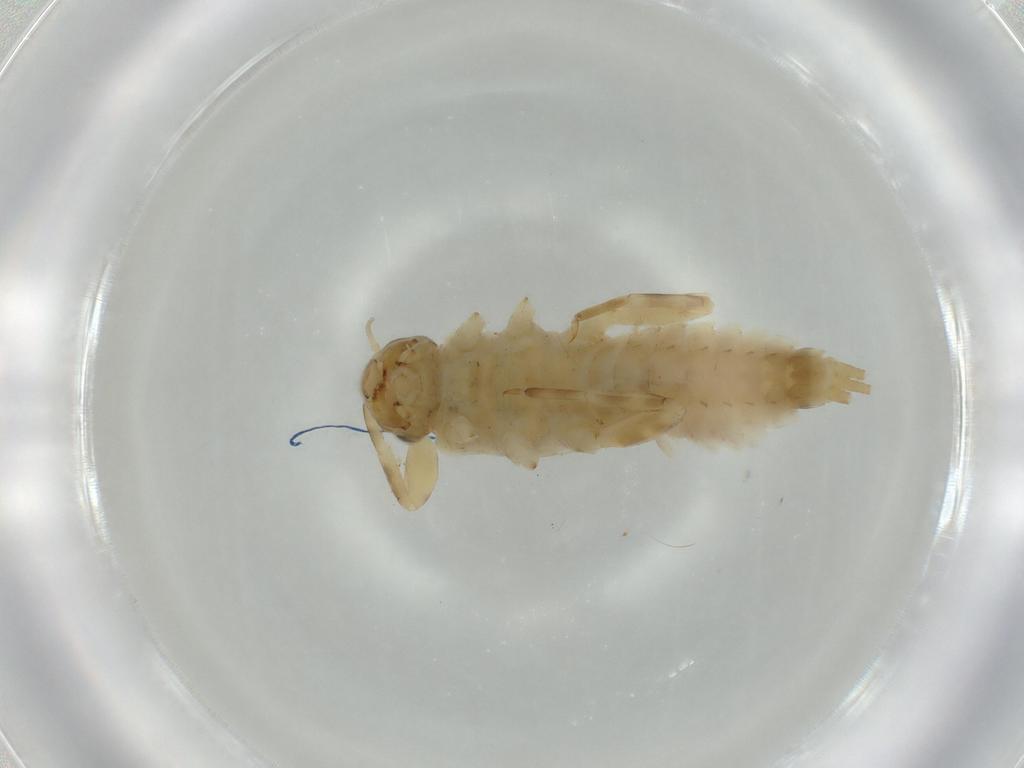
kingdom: Animalia
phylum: Arthropoda
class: Insecta
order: Ephemeroptera
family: Ephemerellidae
